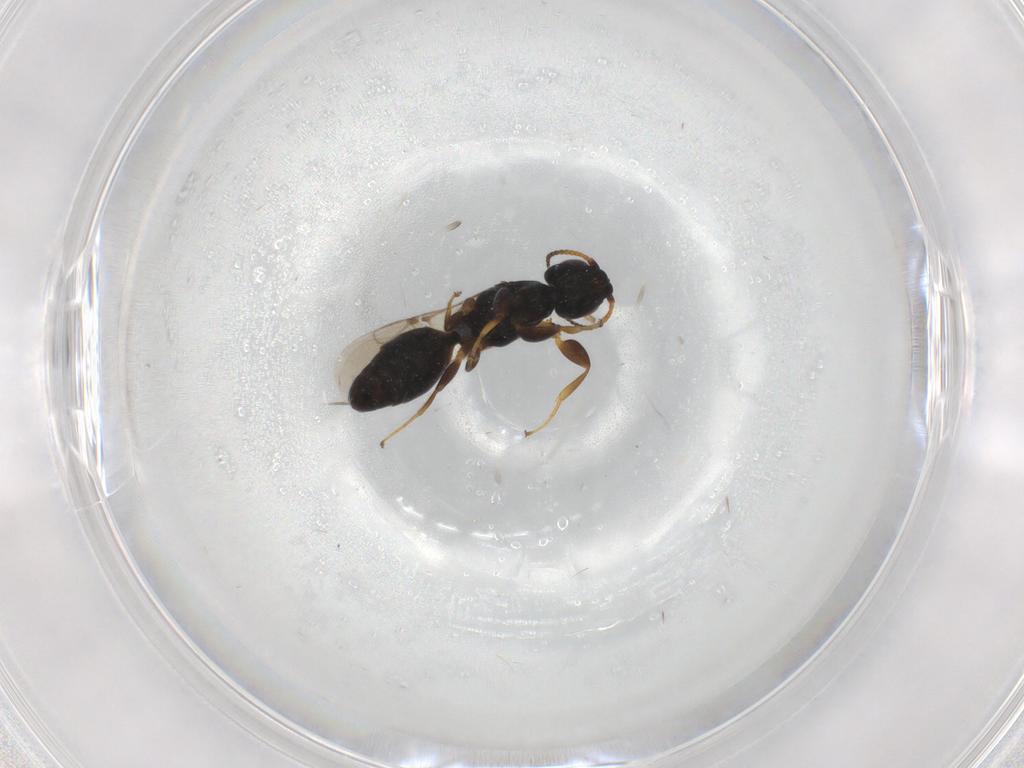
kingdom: Animalia
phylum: Arthropoda
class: Insecta
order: Hymenoptera
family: Bethylidae
